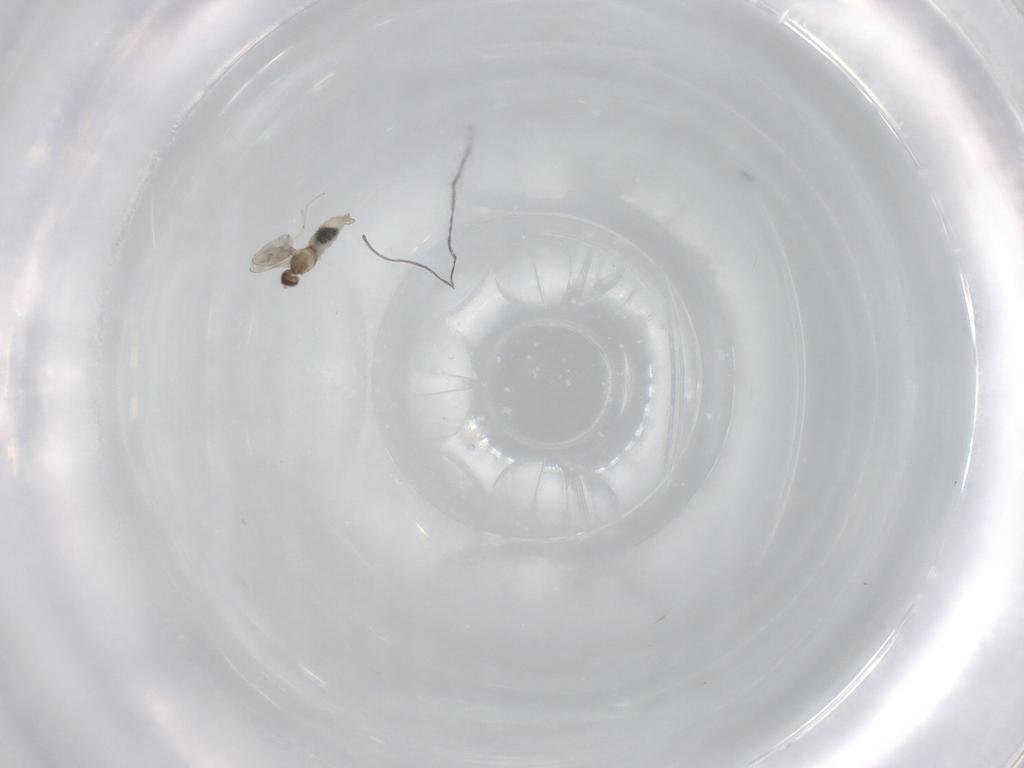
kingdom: Animalia
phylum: Arthropoda
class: Insecta
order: Diptera
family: Cecidomyiidae
